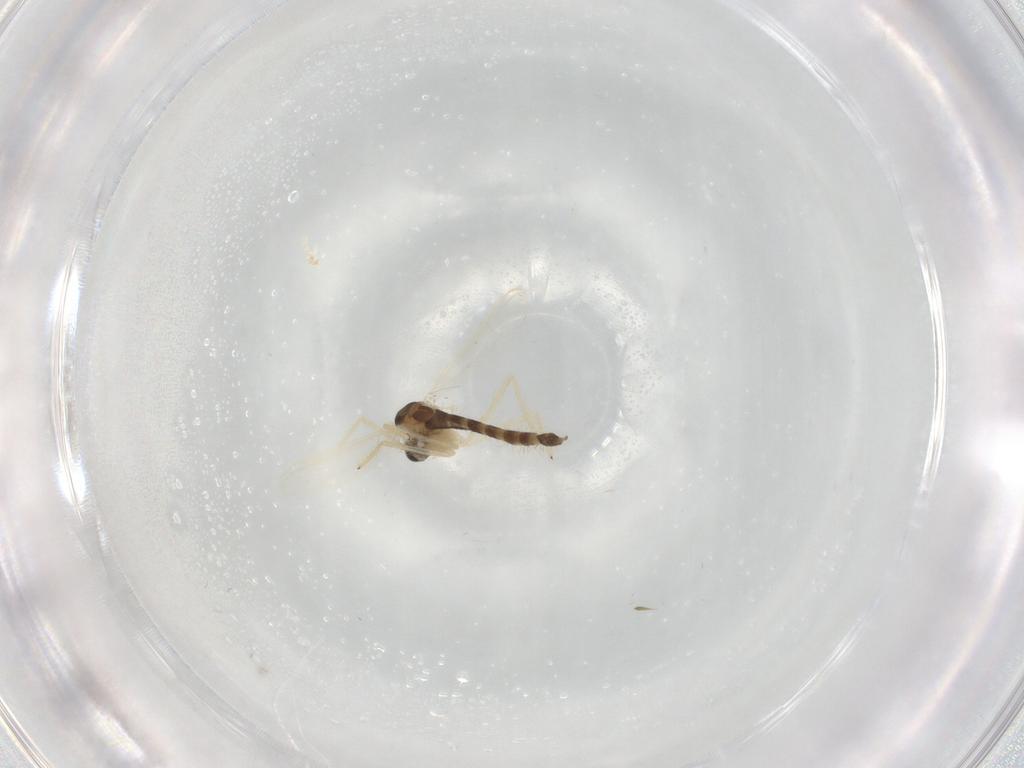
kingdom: Animalia
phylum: Arthropoda
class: Insecta
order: Diptera
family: Chironomidae
